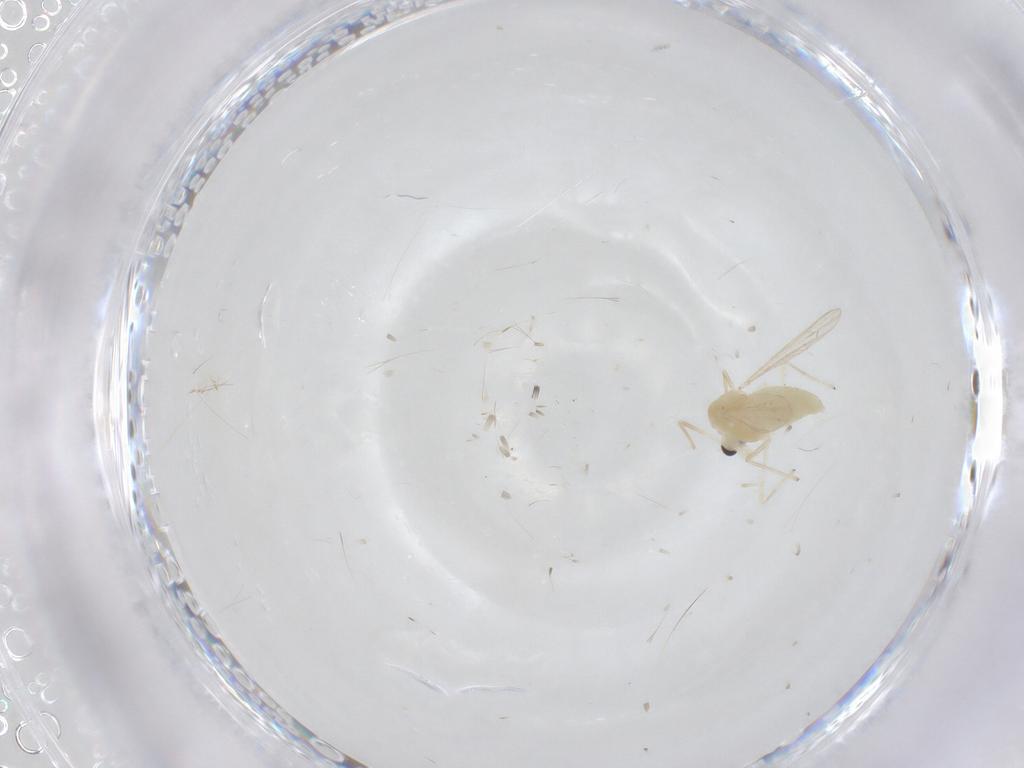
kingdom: Animalia
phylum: Arthropoda
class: Insecta
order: Diptera
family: Ceratopogonidae
